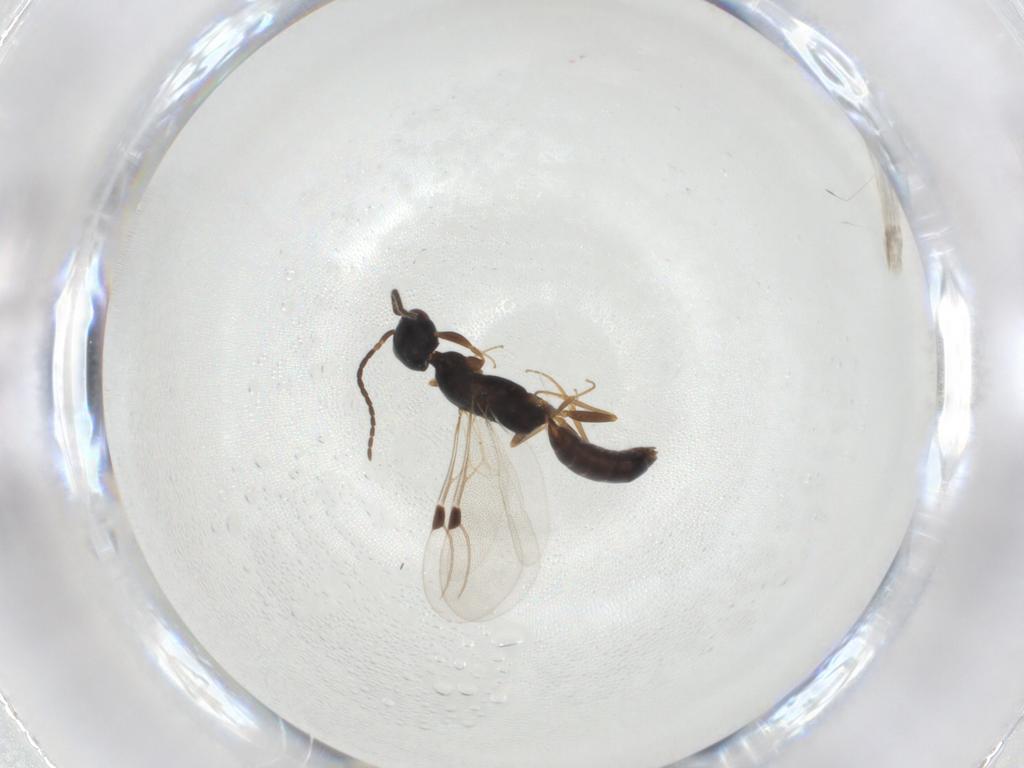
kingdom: Animalia
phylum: Arthropoda
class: Insecta
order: Hymenoptera
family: Bethylidae
